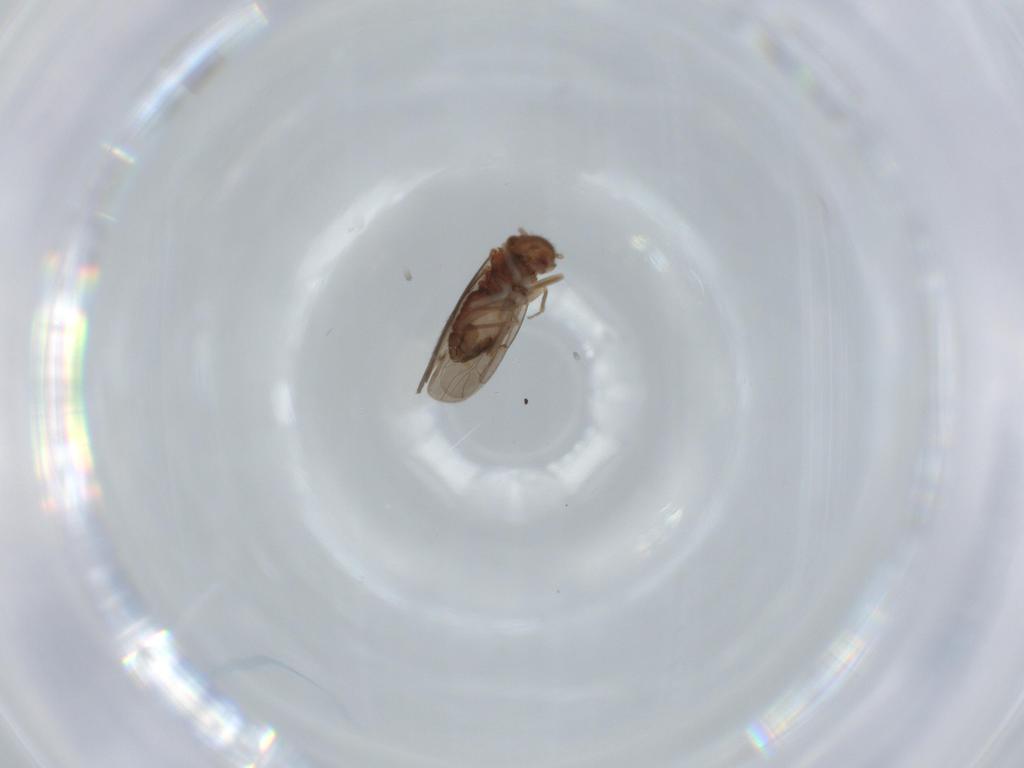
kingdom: Animalia
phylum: Arthropoda
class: Insecta
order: Psocodea
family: Ectopsocidae
